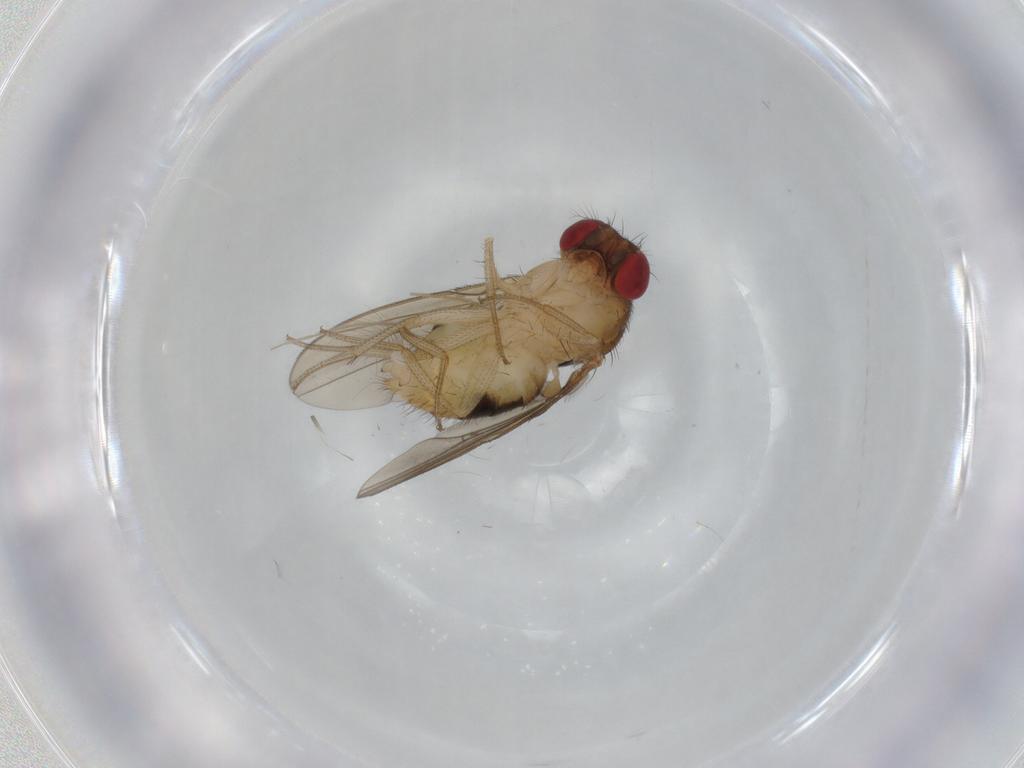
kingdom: Animalia
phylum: Arthropoda
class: Insecta
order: Diptera
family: Drosophilidae
